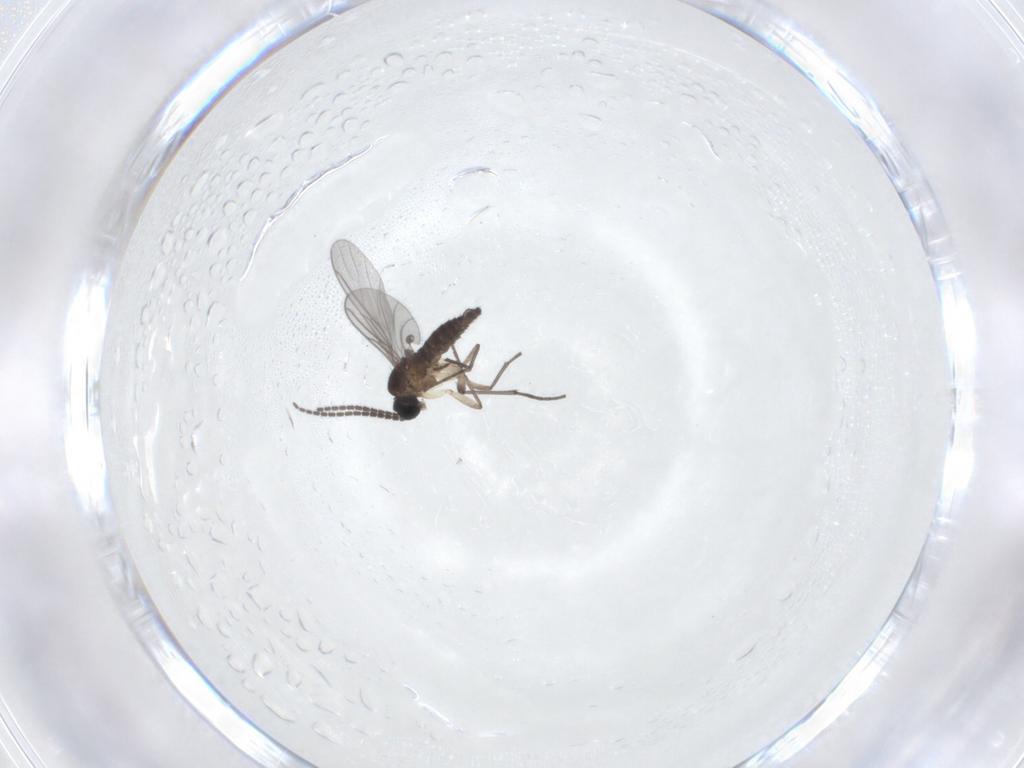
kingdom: Animalia
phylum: Arthropoda
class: Insecta
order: Diptera
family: Sciaridae
